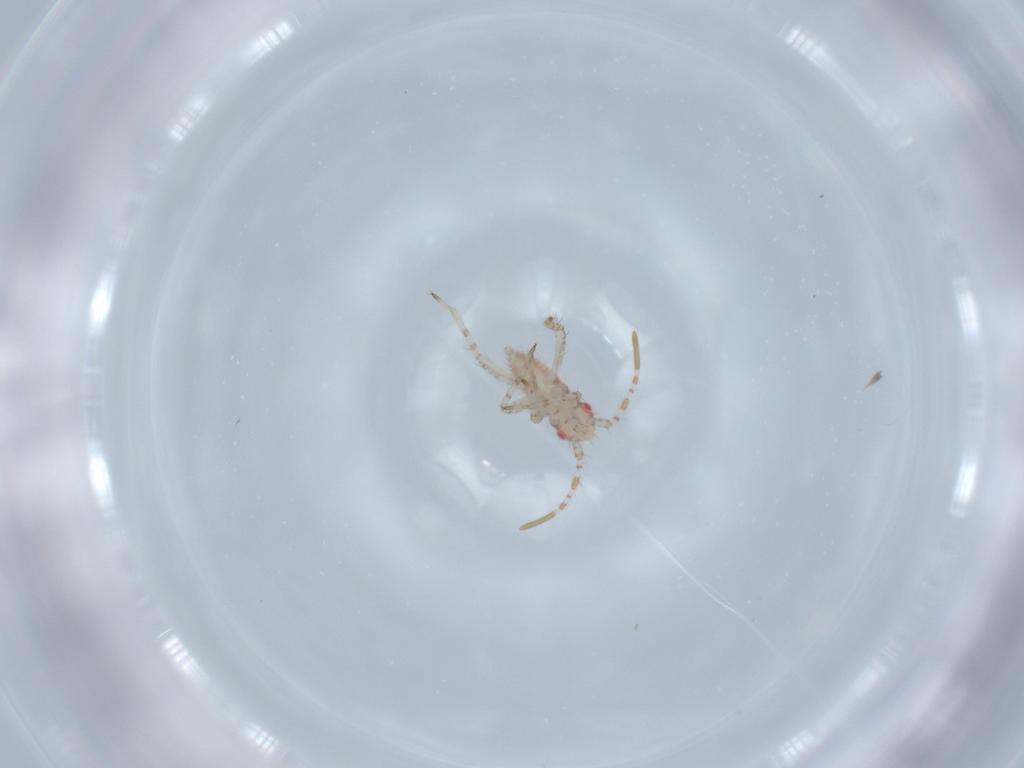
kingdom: Animalia
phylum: Arthropoda
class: Insecta
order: Hemiptera
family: Miridae
